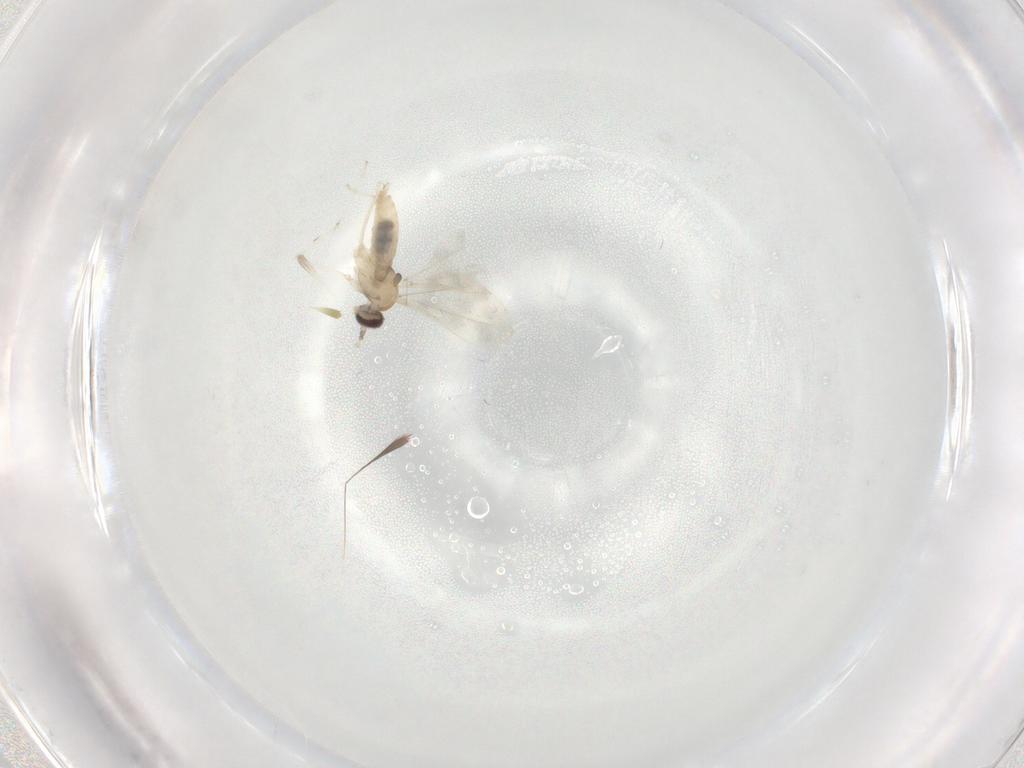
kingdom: Animalia
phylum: Arthropoda
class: Insecta
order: Diptera
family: Cecidomyiidae
